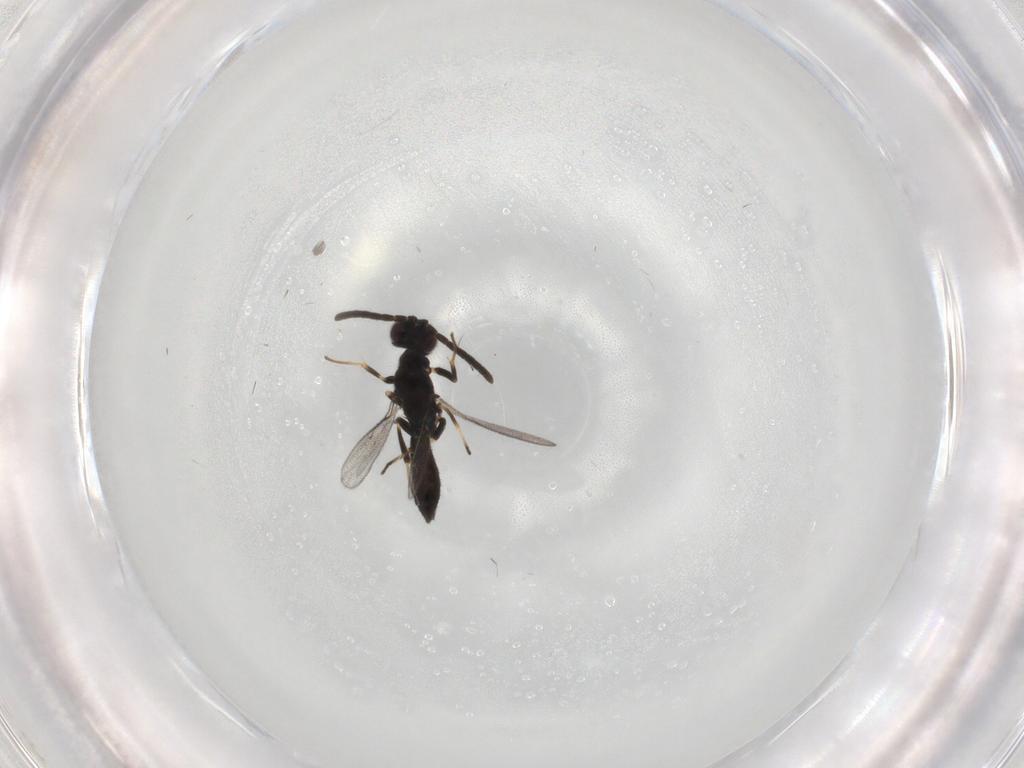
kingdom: Animalia
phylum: Arthropoda
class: Insecta
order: Hymenoptera
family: Eupelmidae
